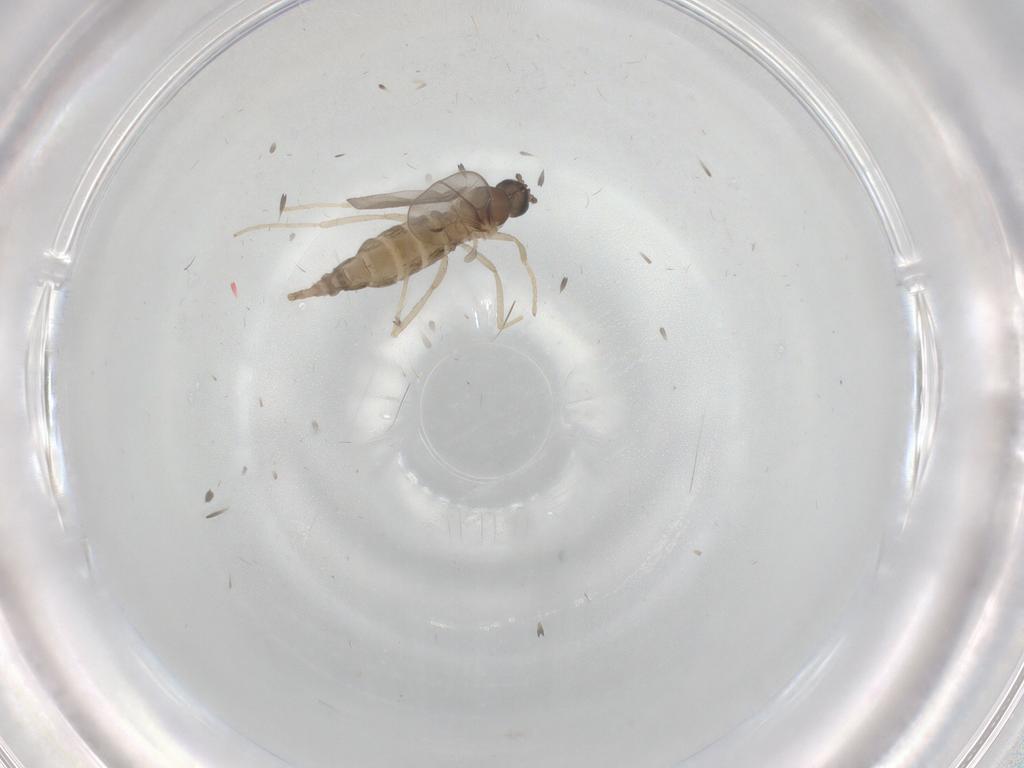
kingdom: Animalia
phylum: Arthropoda
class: Insecta
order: Diptera
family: Cecidomyiidae
